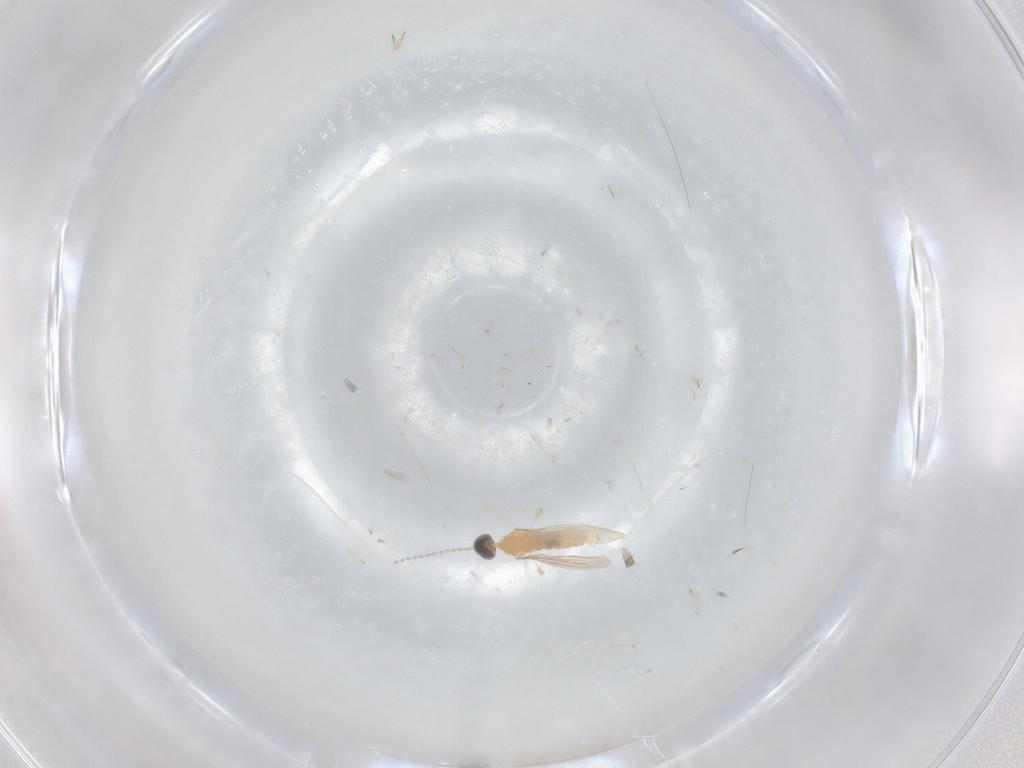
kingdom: Animalia
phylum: Arthropoda
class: Insecta
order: Diptera
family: Cecidomyiidae
